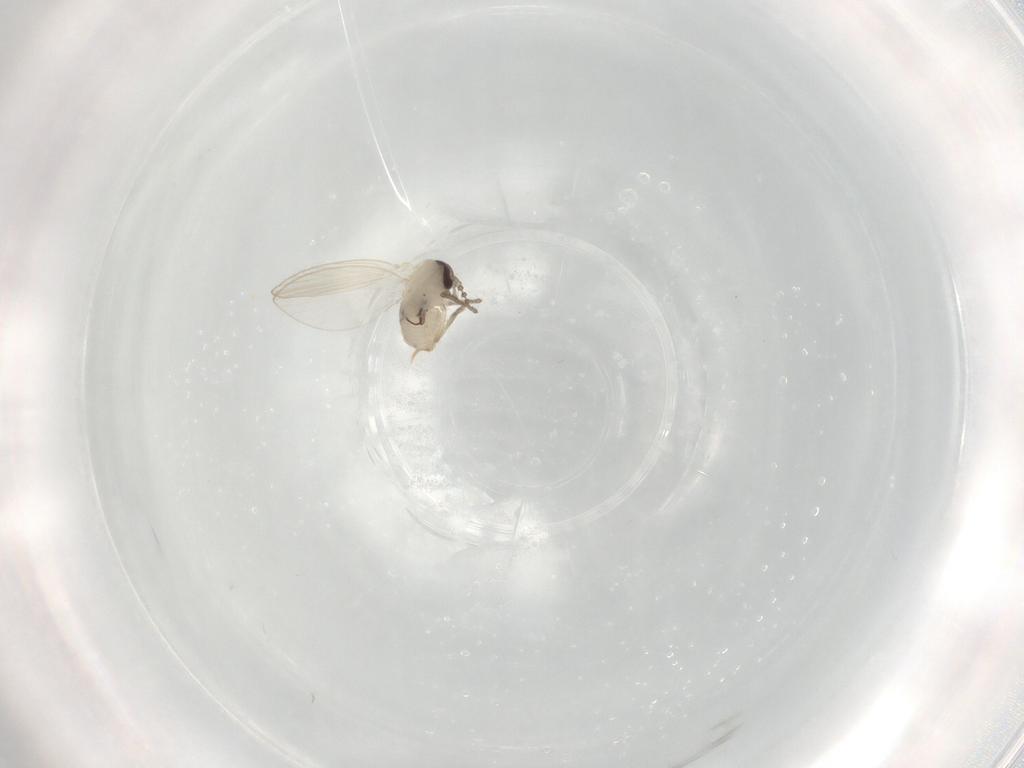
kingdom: Animalia
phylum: Arthropoda
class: Insecta
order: Diptera
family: Psychodidae
